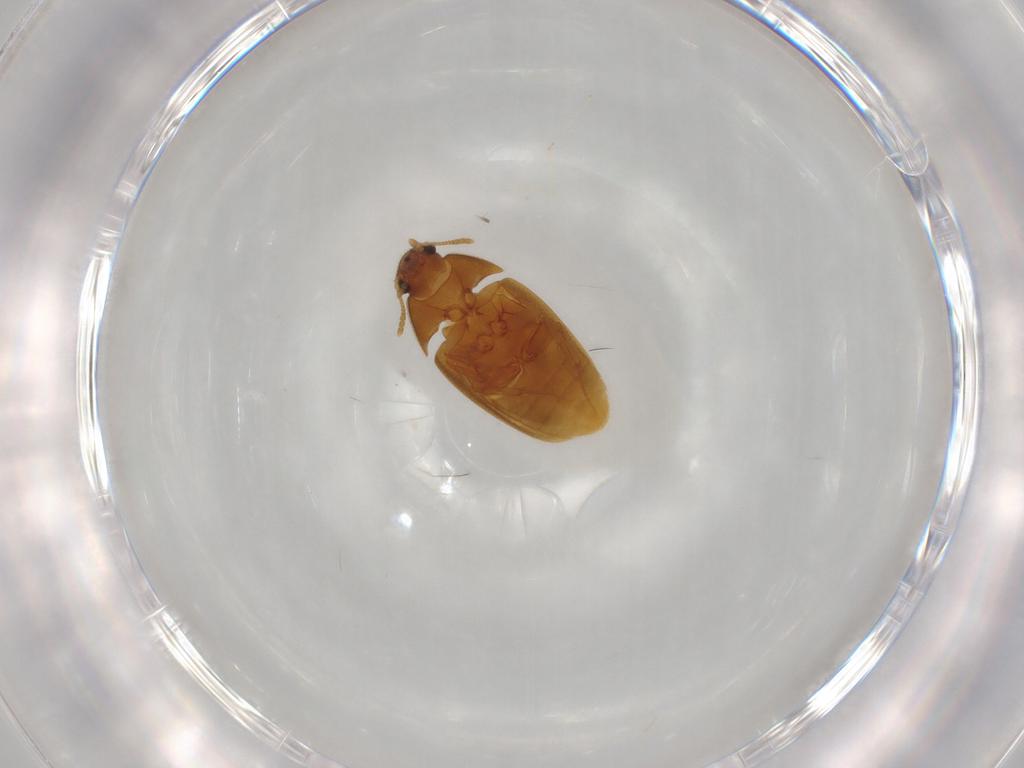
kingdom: Animalia
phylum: Arthropoda
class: Insecta
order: Coleoptera
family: Mycetophagidae
